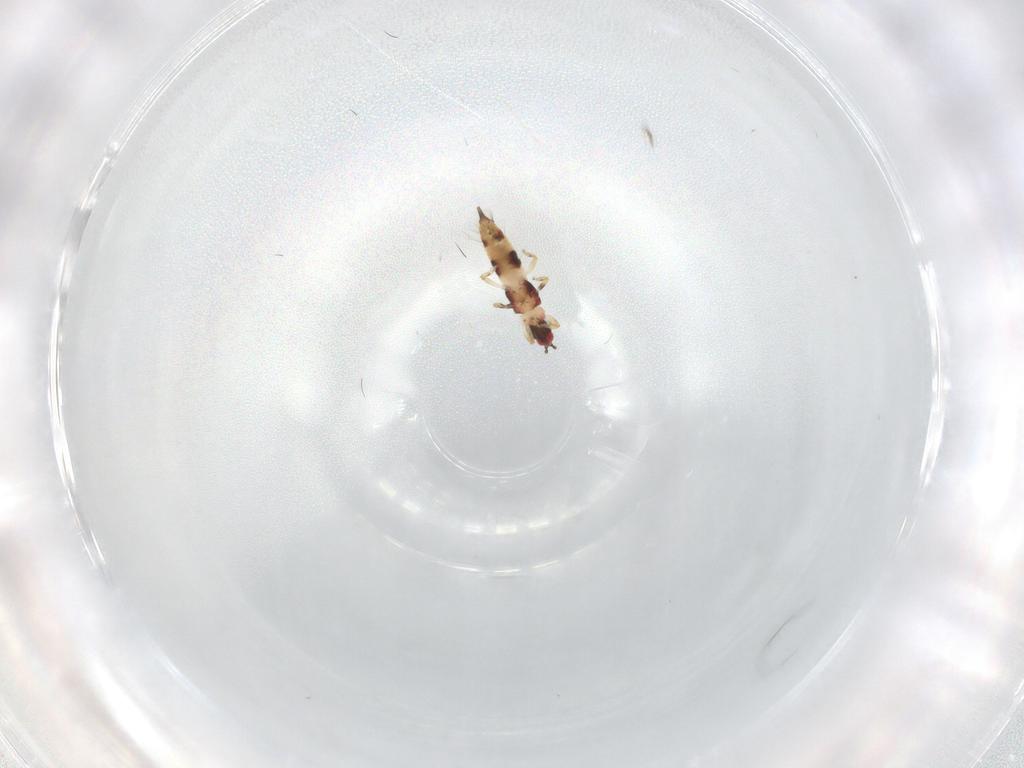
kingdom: Animalia
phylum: Arthropoda
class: Insecta
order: Thysanoptera
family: Phlaeothripidae
